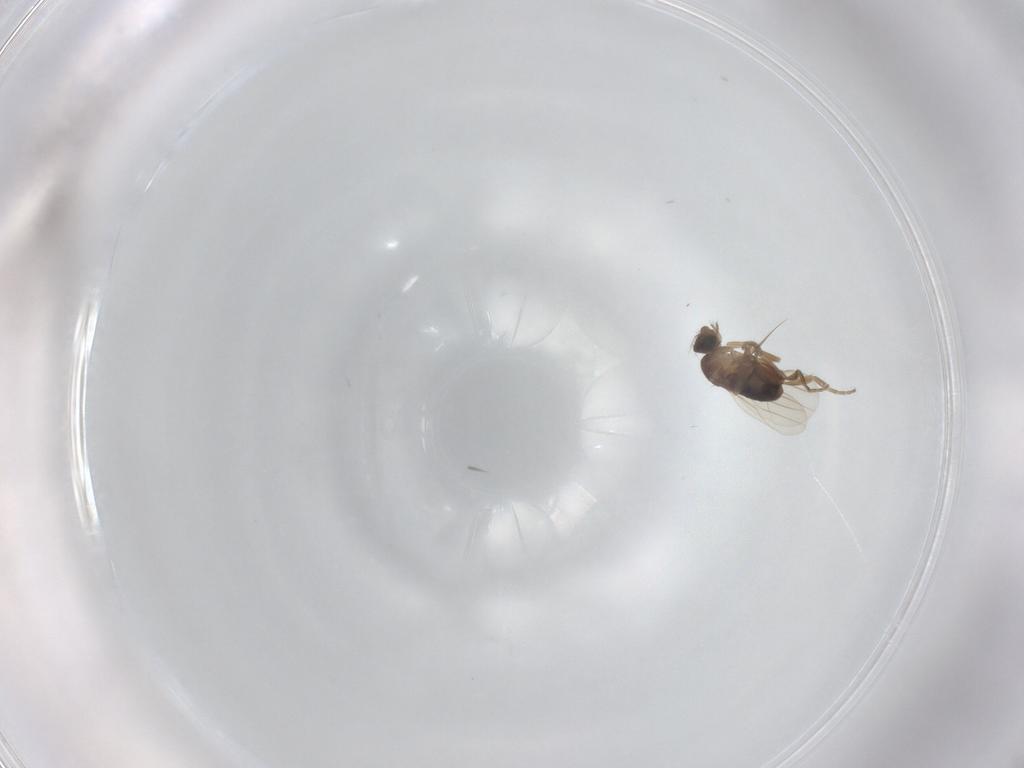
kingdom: Animalia
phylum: Arthropoda
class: Insecta
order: Diptera
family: Phoridae
